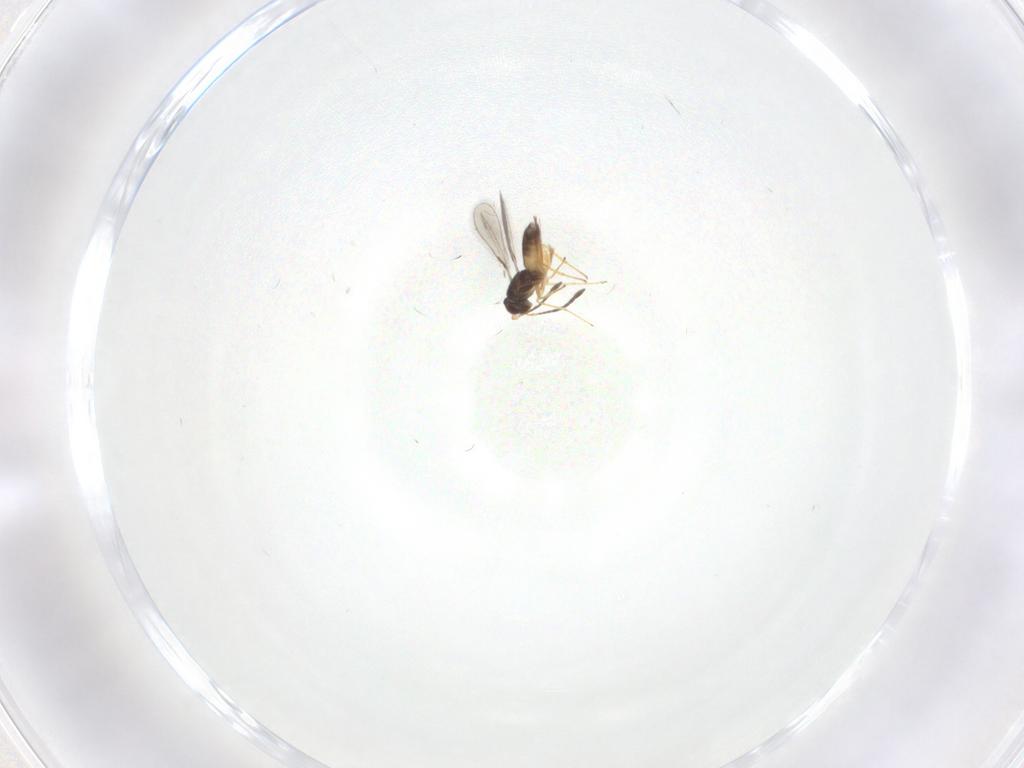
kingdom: Animalia
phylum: Arthropoda
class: Insecta
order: Hymenoptera
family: Mymaridae
